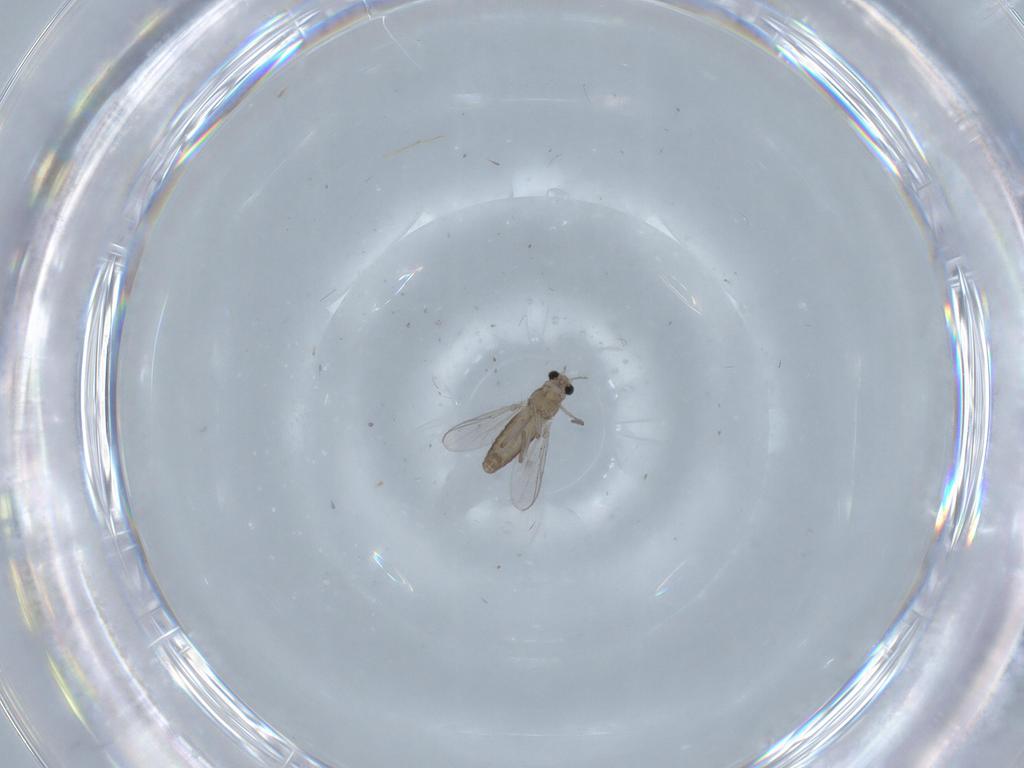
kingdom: Animalia
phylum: Arthropoda
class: Insecta
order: Diptera
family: Chironomidae
